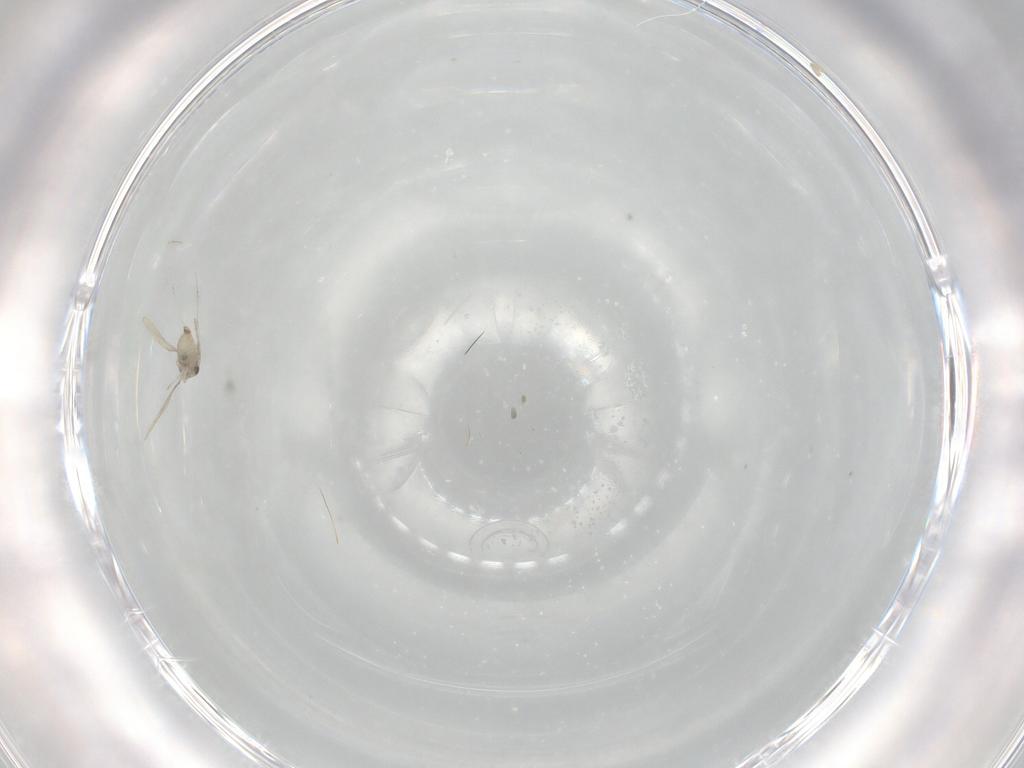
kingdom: Animalia
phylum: Arthropoda
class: Insecta
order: Diptera
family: Limoniidae
